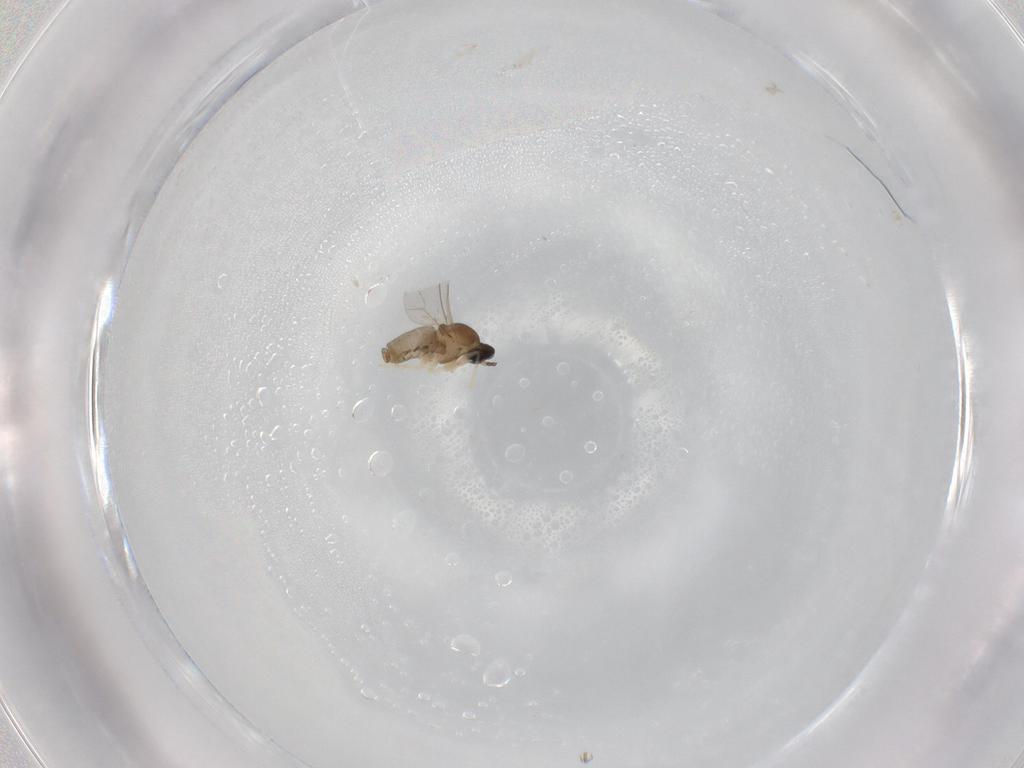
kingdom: Animalia
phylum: Arthropoda
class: Insecta
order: Diptera
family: Cecidomyiidae
